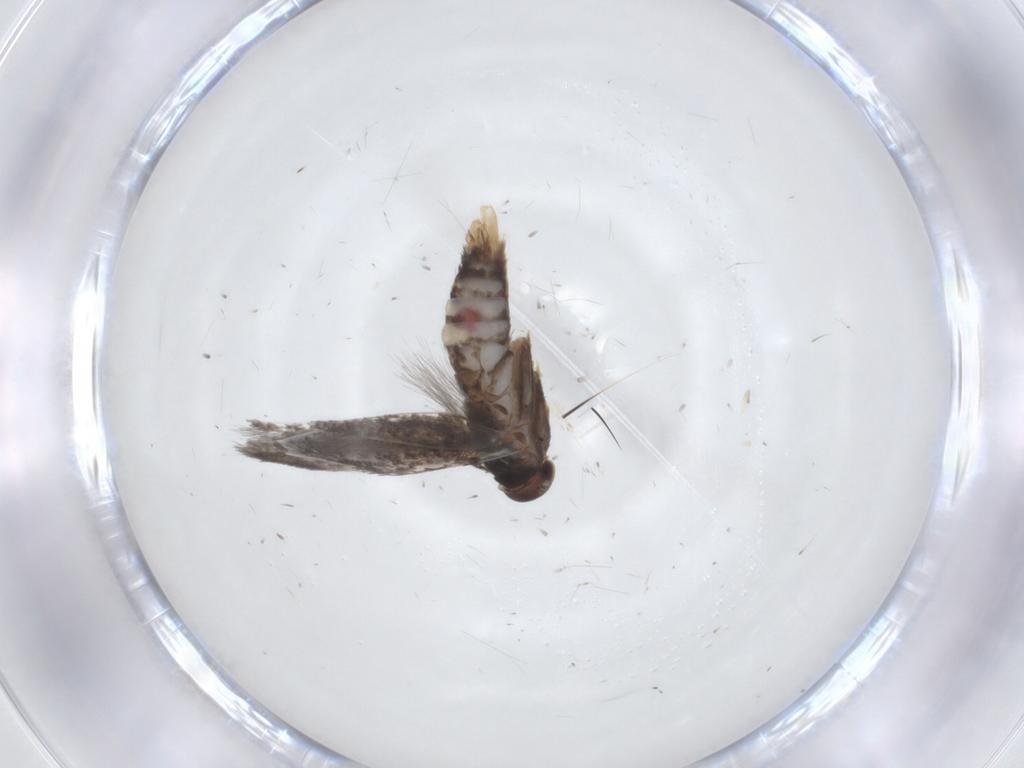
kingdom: Animalia
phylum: Arthropoda
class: Insecta
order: Lepidoptera
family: Elachistidae
